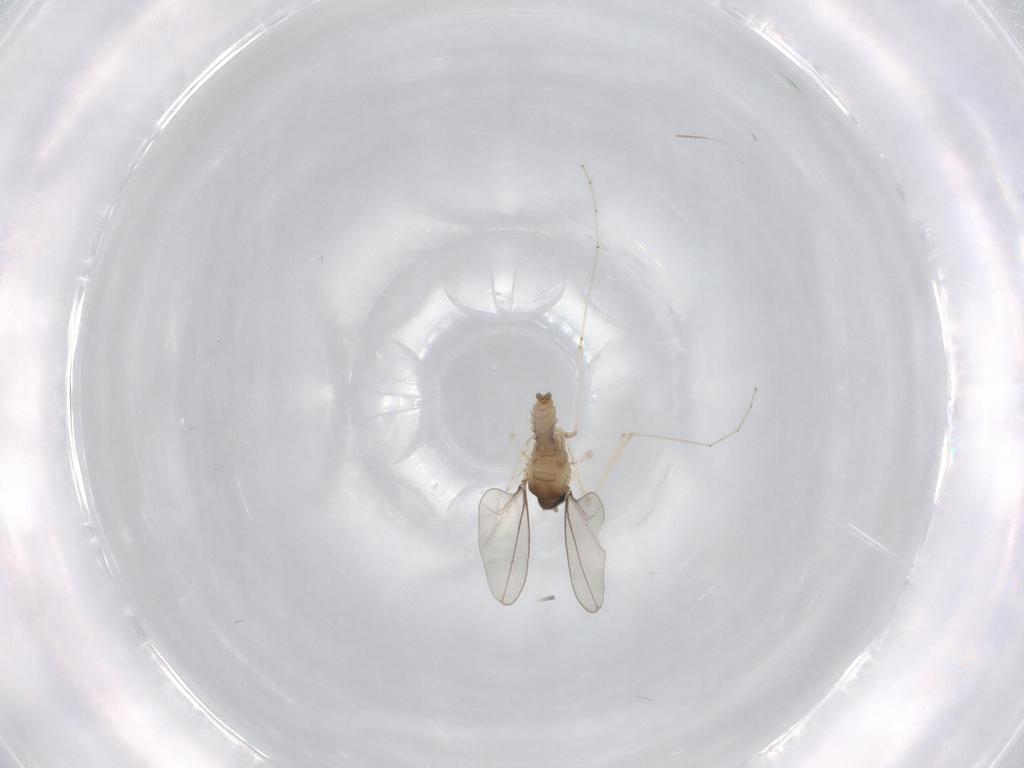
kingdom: Animalia
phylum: Arthropoda
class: Insecta
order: Diptera
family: Cecidomyiidae
